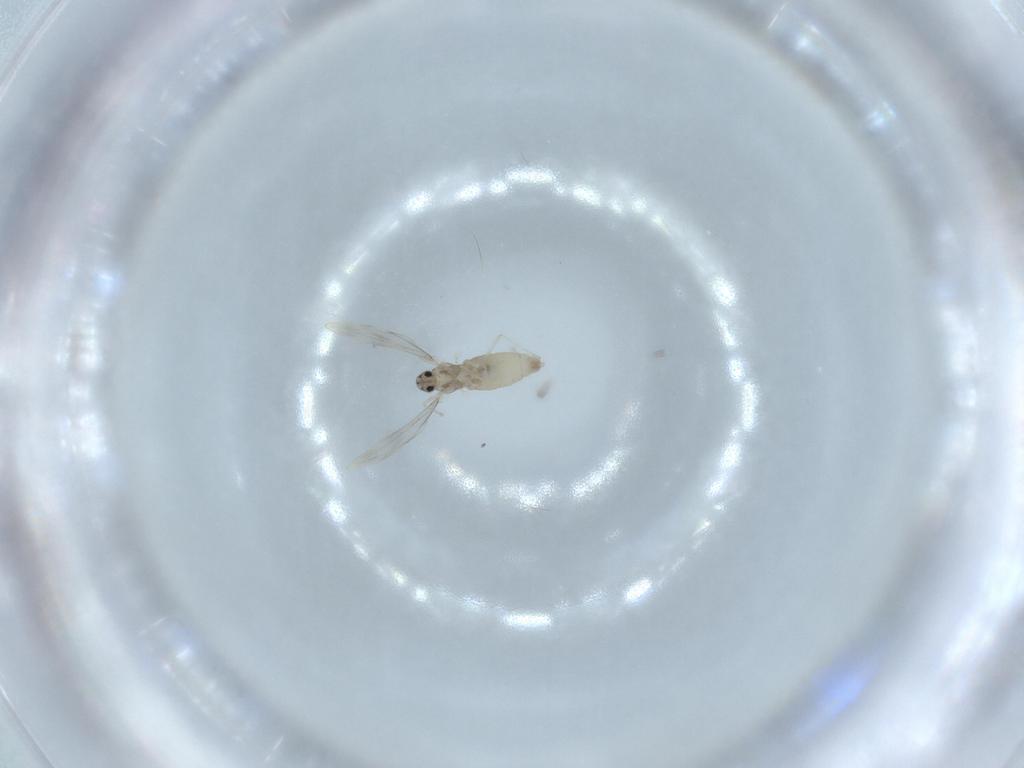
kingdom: Animalia
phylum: Arthropoda
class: Insecta
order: Diptera
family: Cecidomyiidae
